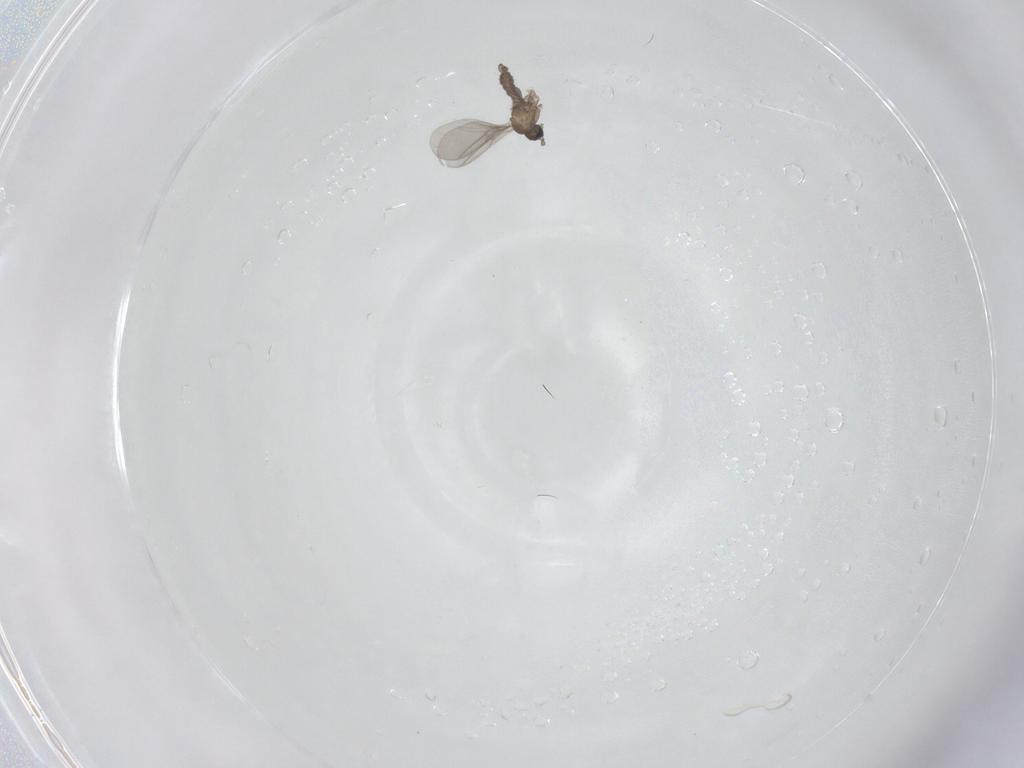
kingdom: Animalia
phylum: Arthropoda
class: Insecta
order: Diptera
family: Sciaridae
